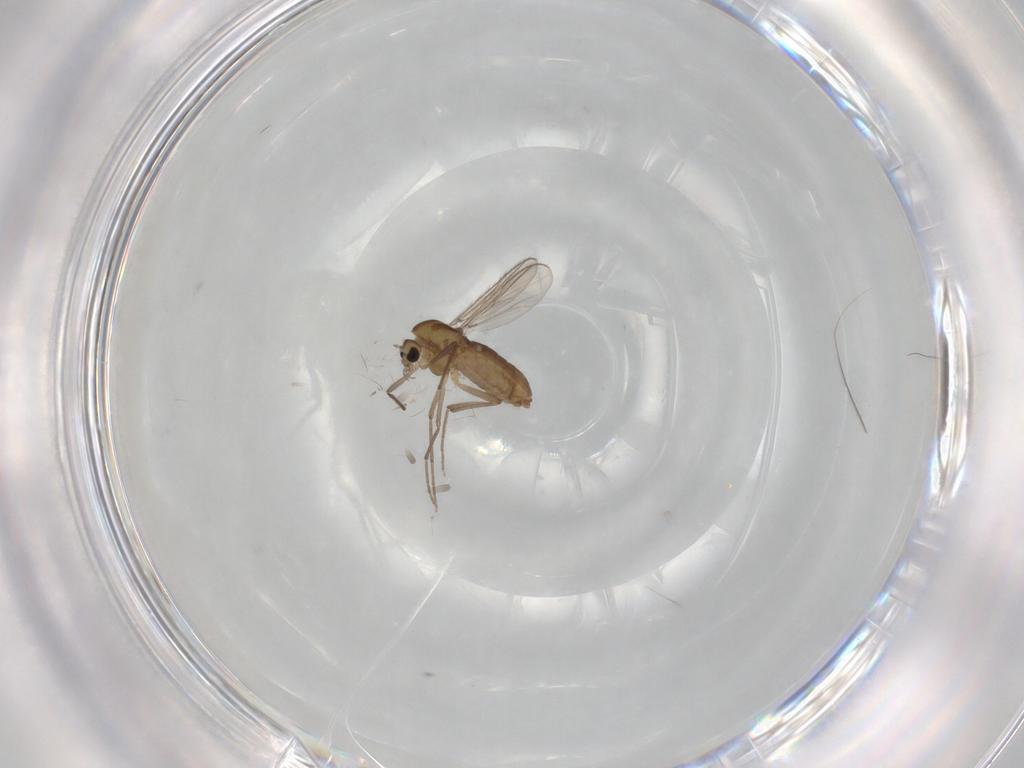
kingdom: Animalia
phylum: Arthropoda
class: Insecta
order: Diptera
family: Chironomidae
